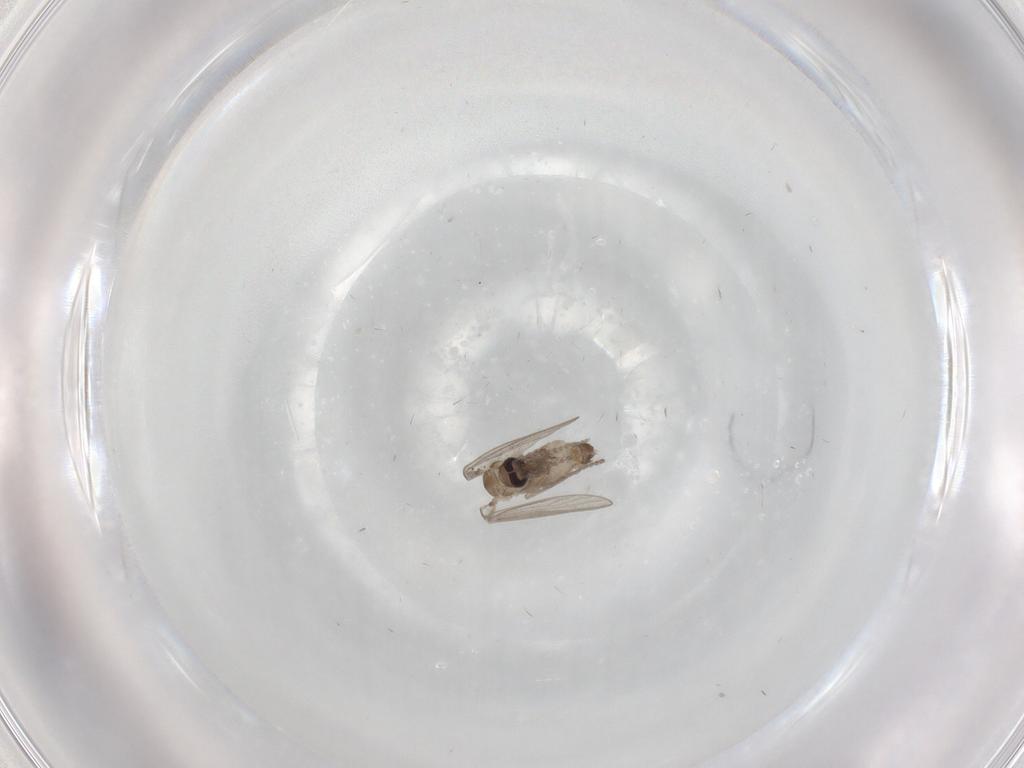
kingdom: Animalia
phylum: Arthropoda
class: Insecta
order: Diptera
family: Psychodidae
